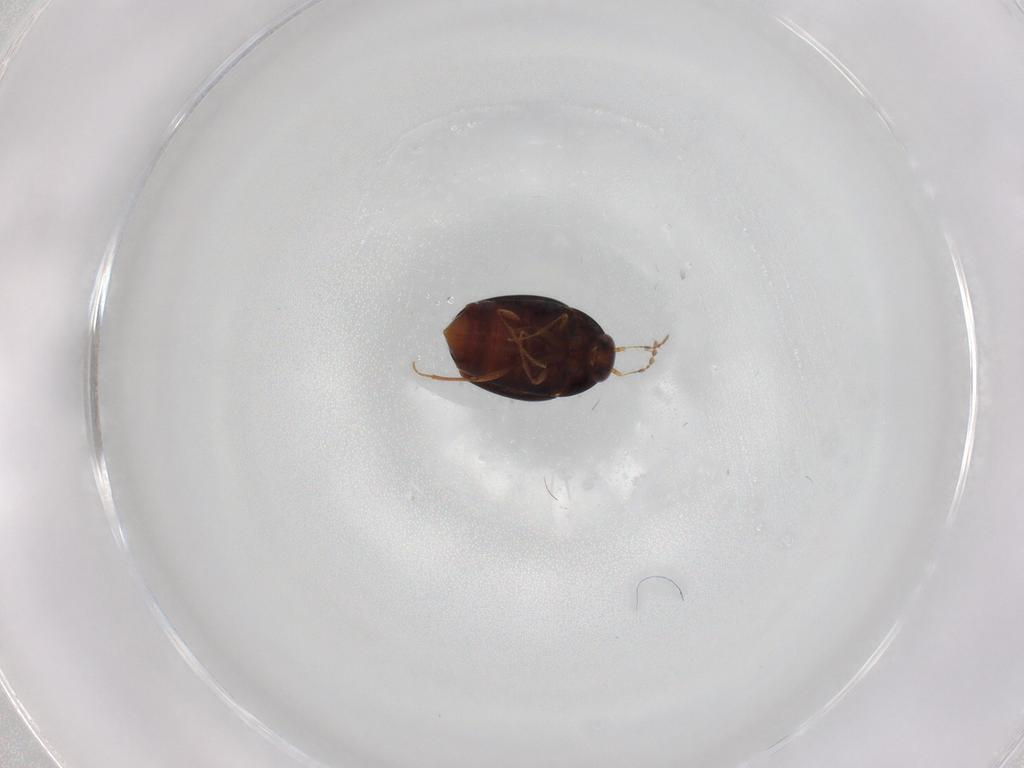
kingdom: Animalia
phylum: Arthropoda
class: Insecta
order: Coleoptera
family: Staphylinidae
